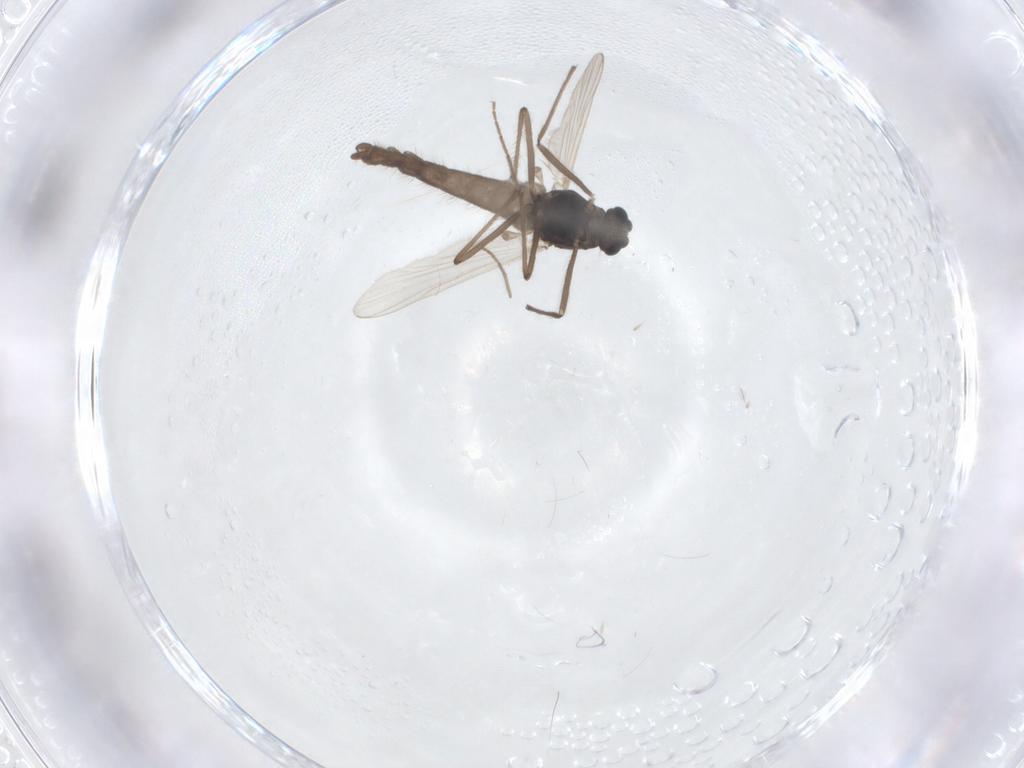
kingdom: Animalia
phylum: Arthropoda
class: Insecta
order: Diptera
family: Chironomidae
